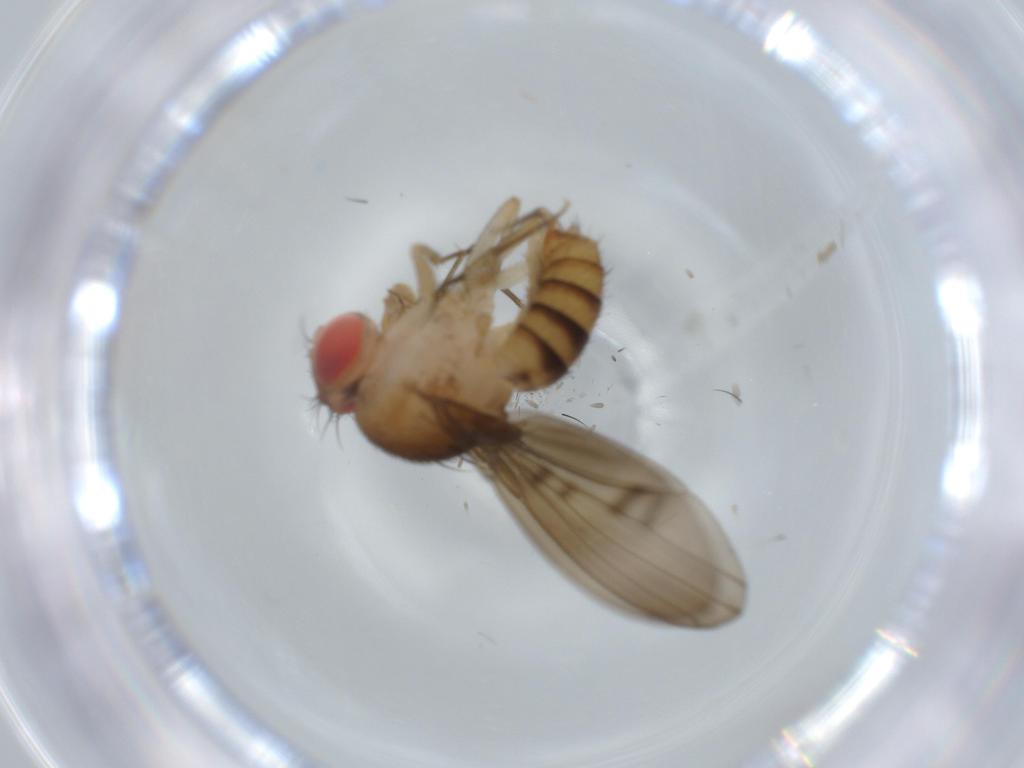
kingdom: Animalia
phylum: Arthropoda
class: Insecta
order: Diptera
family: Drosophilidae
